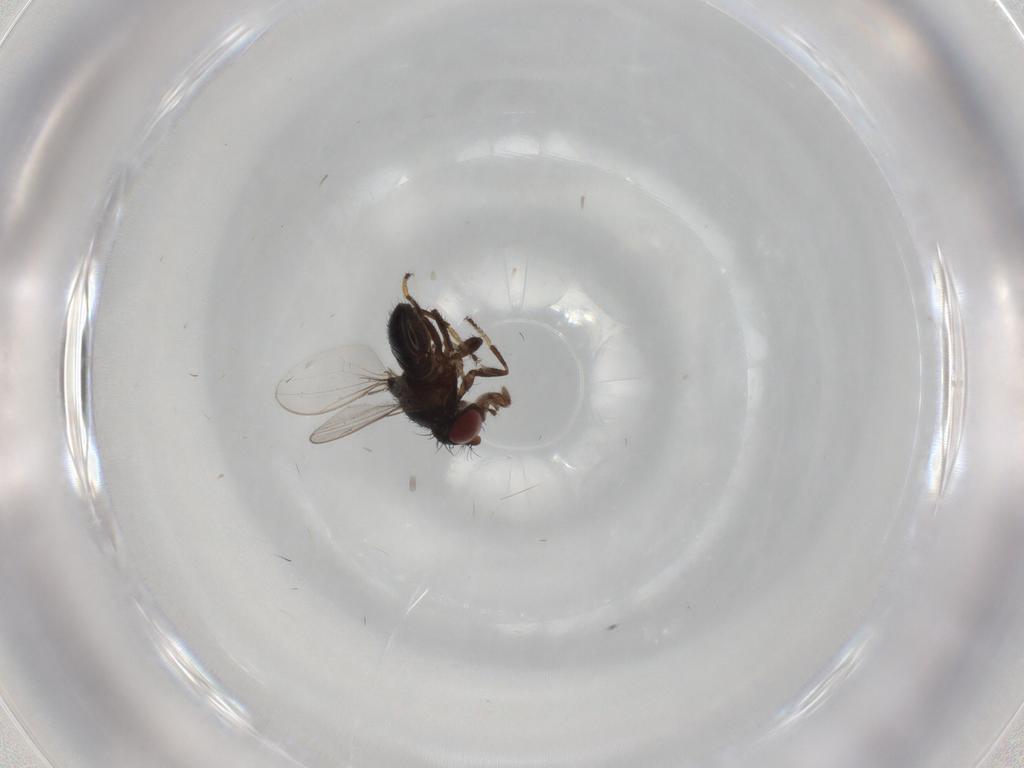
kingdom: Animalia
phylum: Arthropoda
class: Insecta
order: Diptera
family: Ephydridae
